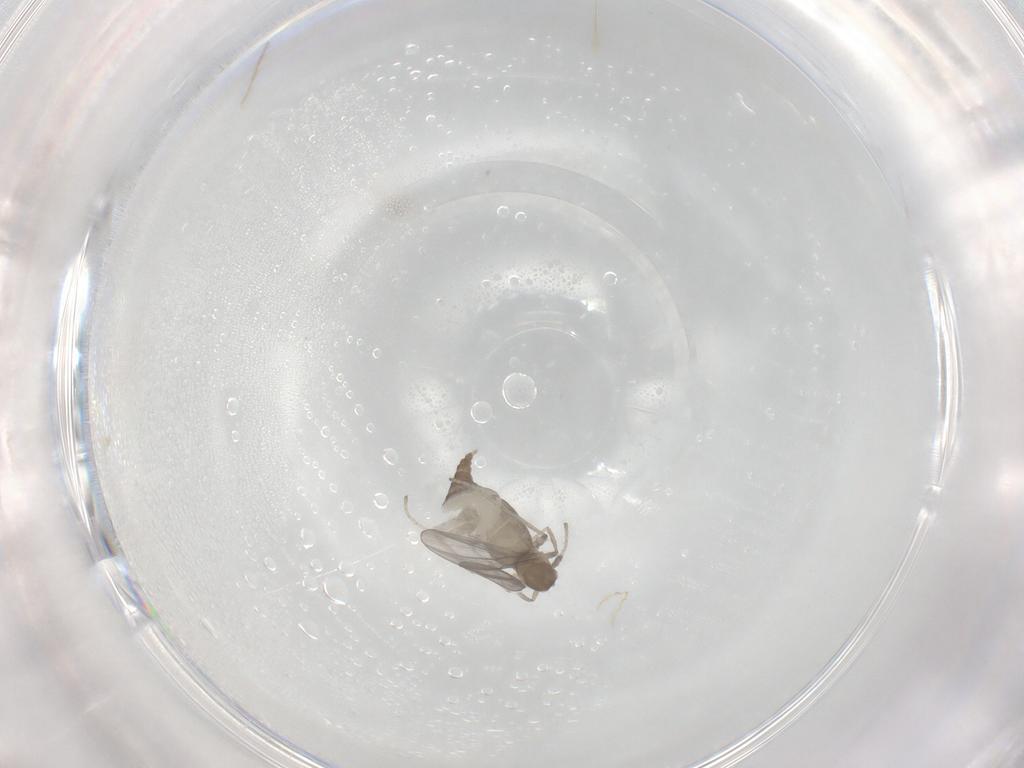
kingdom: Animalia
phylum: Arthropoda
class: Insecta
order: Diptera
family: Cecidomyiidae
